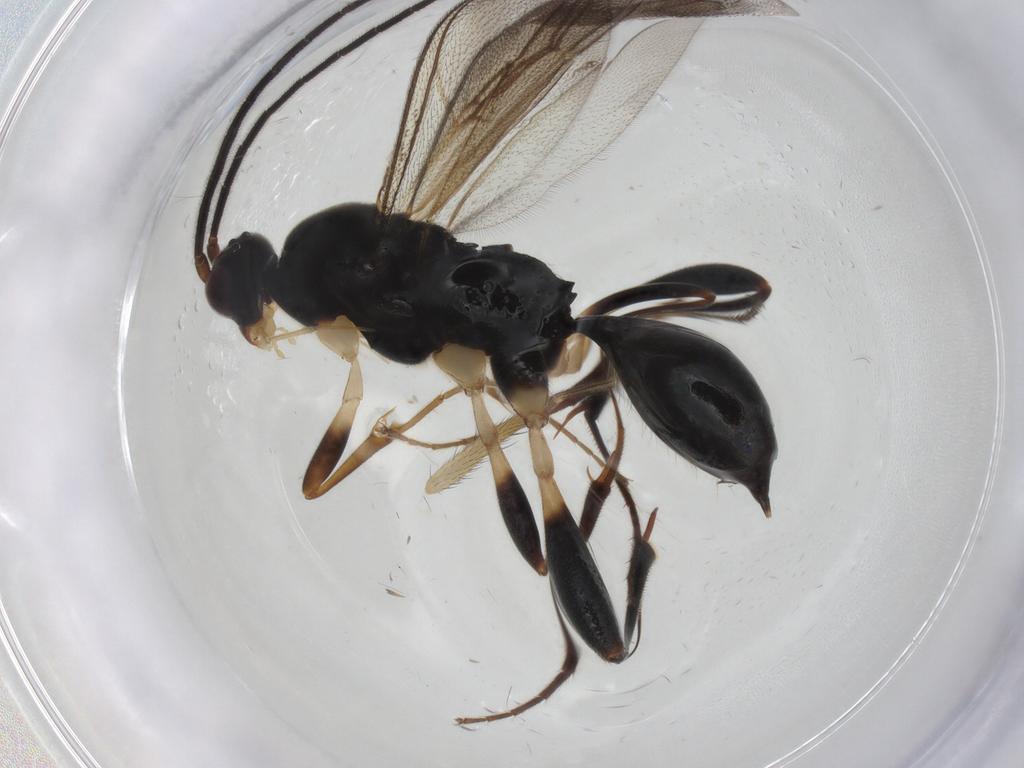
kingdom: Animalia
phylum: Arthropoda
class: Insecta
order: Hymenoptera
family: Proctotrupidae
